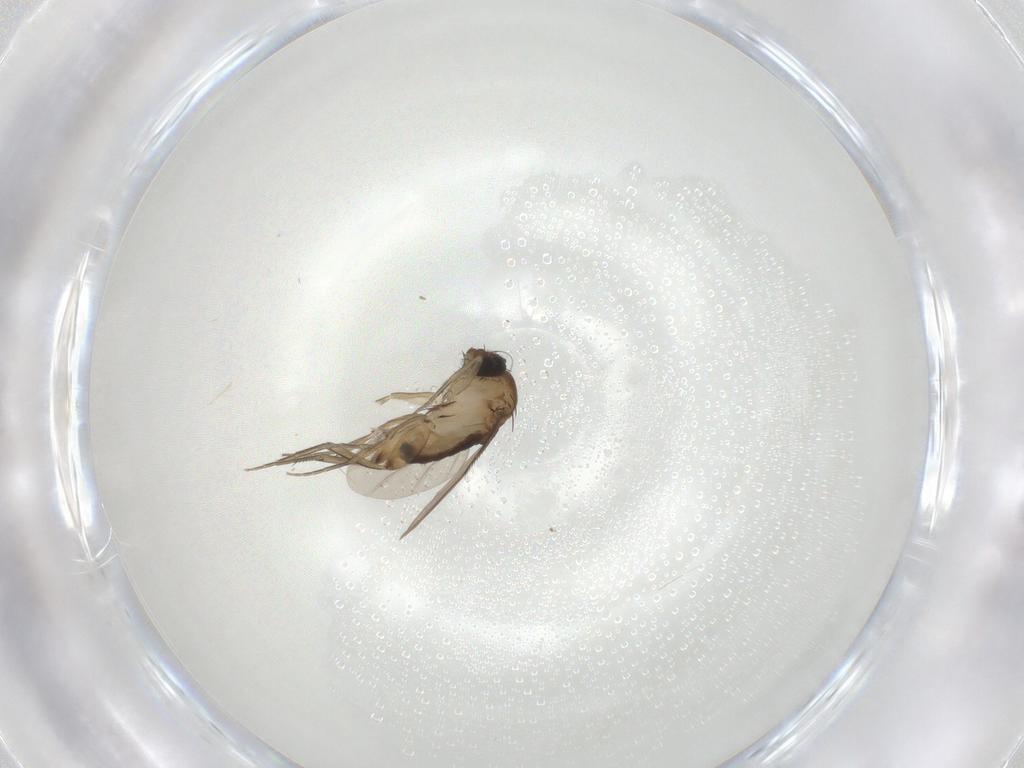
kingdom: Animalia
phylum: Arthropoda
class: Insecta
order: Diptera
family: Phoridae
